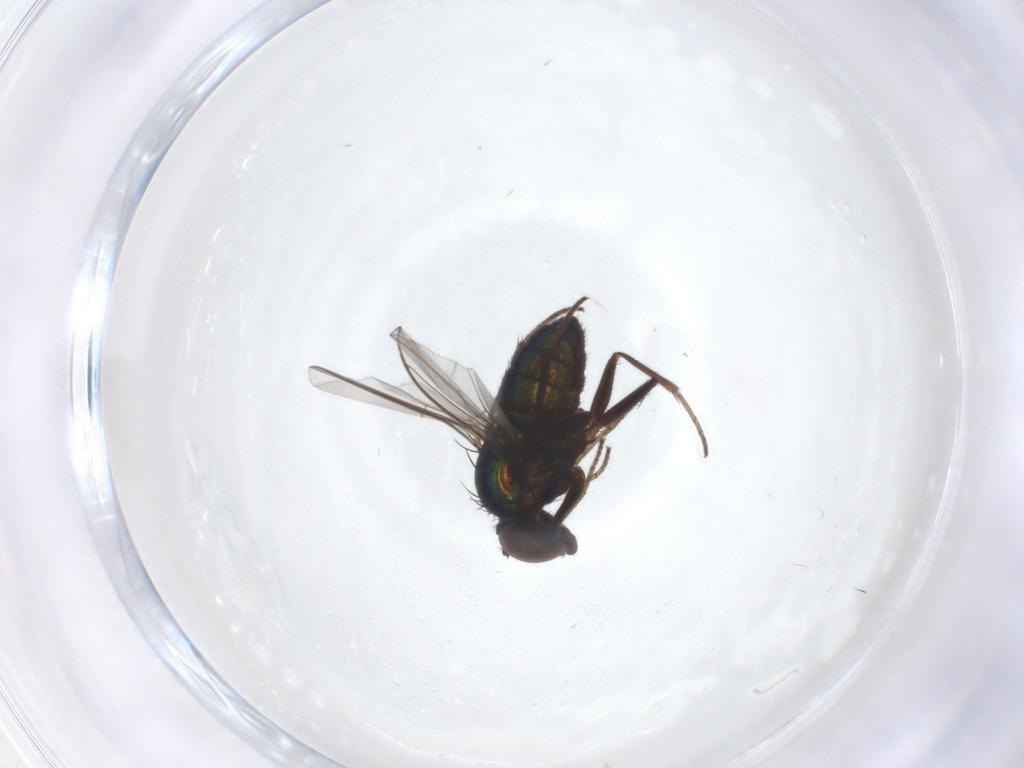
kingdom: Animalia
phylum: Arthropoda
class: Insecta
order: Diptera
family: Dolichopodidae
